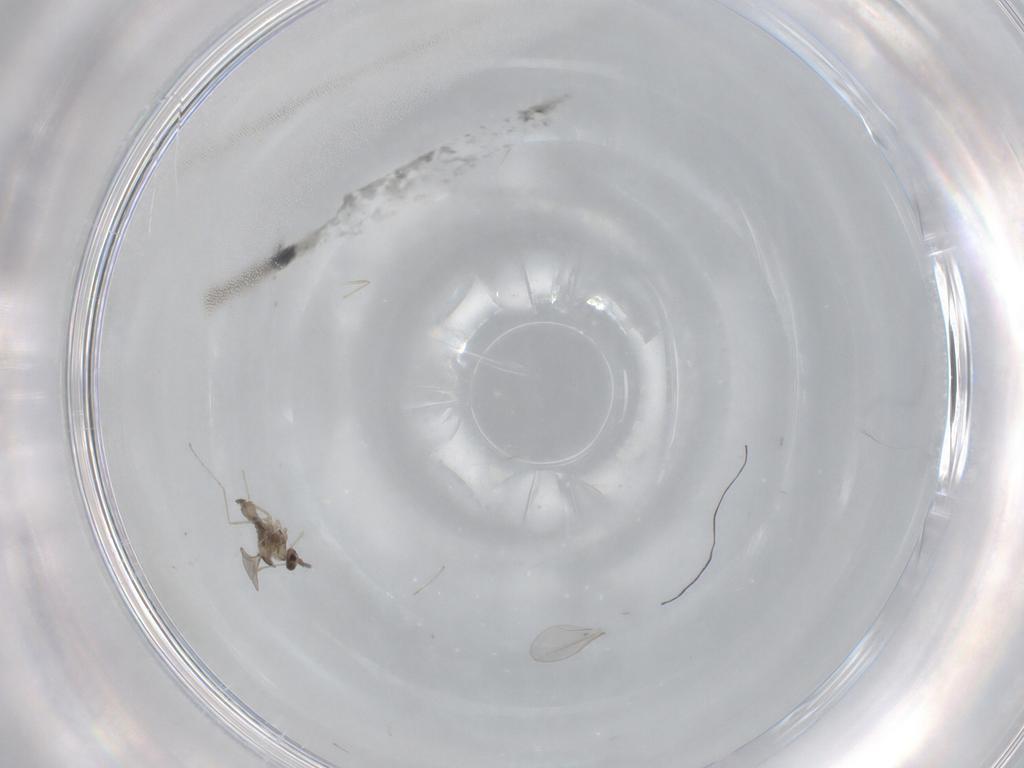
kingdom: Animalia
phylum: Arthropoda
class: Insecta
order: Diptera
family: Cecidomyiidae
